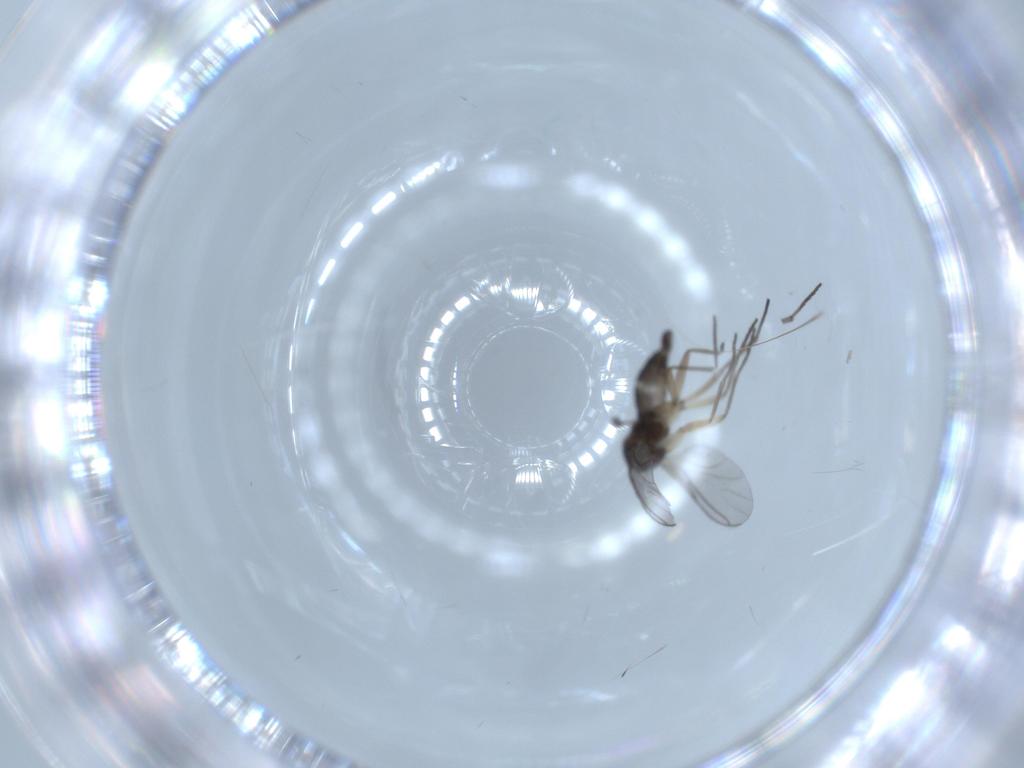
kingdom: Animalia
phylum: Arthropoda
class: Insecta
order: Diptera
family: Sciaridae
